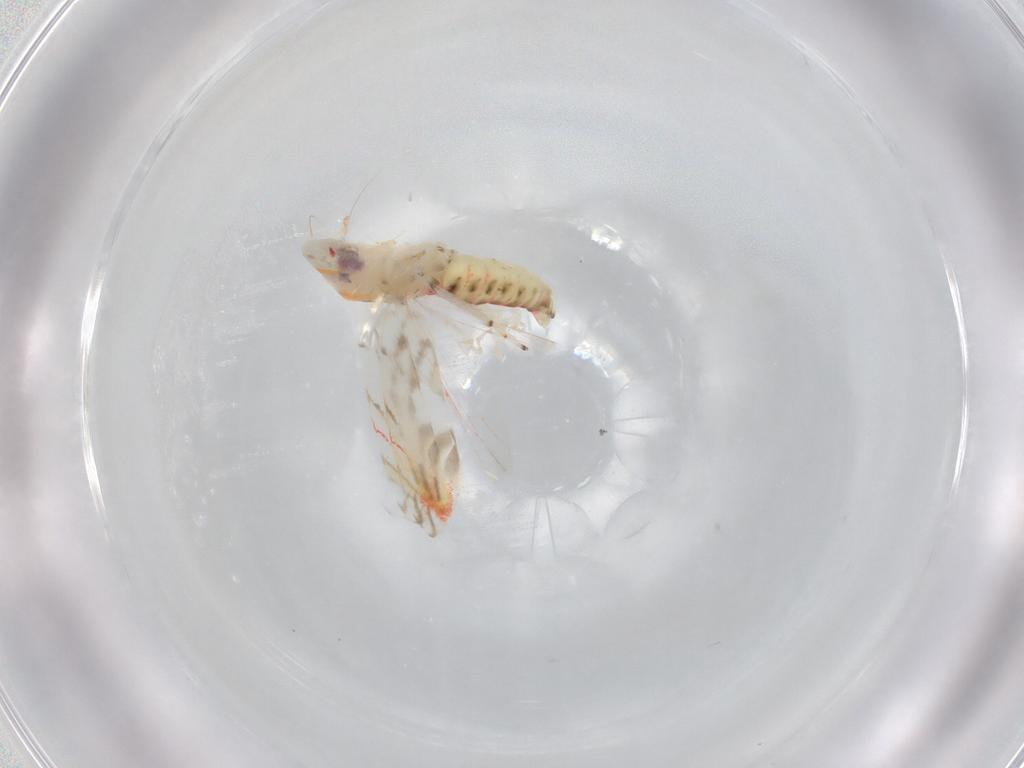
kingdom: Animalia
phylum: Arthropoda
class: Insecta
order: Hemiptera
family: Cicadellidae
